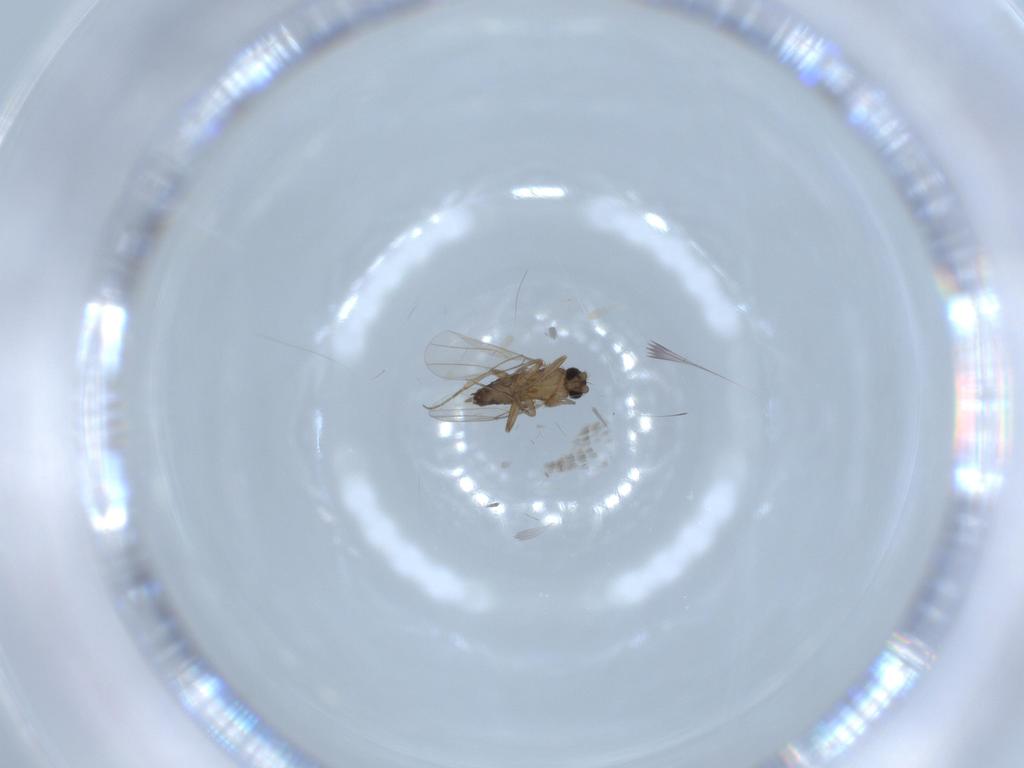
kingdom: Animalia
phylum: Arthropoda
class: Insecta
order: Diptera
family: Phoridae
